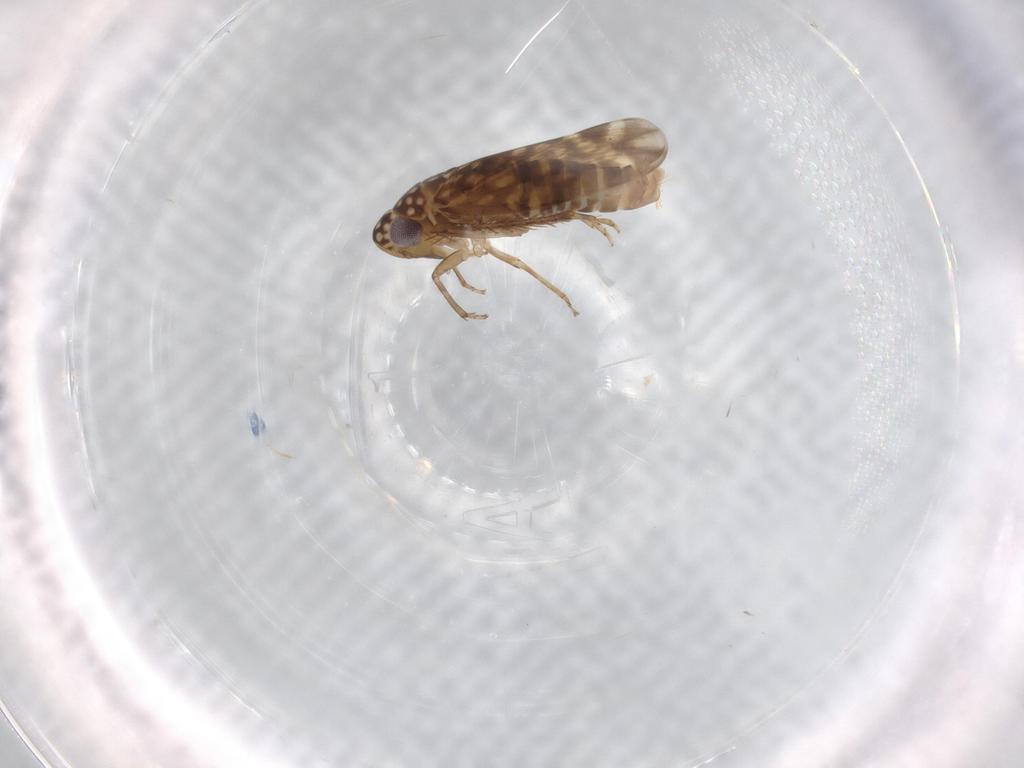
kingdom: Animalia
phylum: Arthropoda
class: Insecta
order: Hemiptera
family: Cicadellidae
